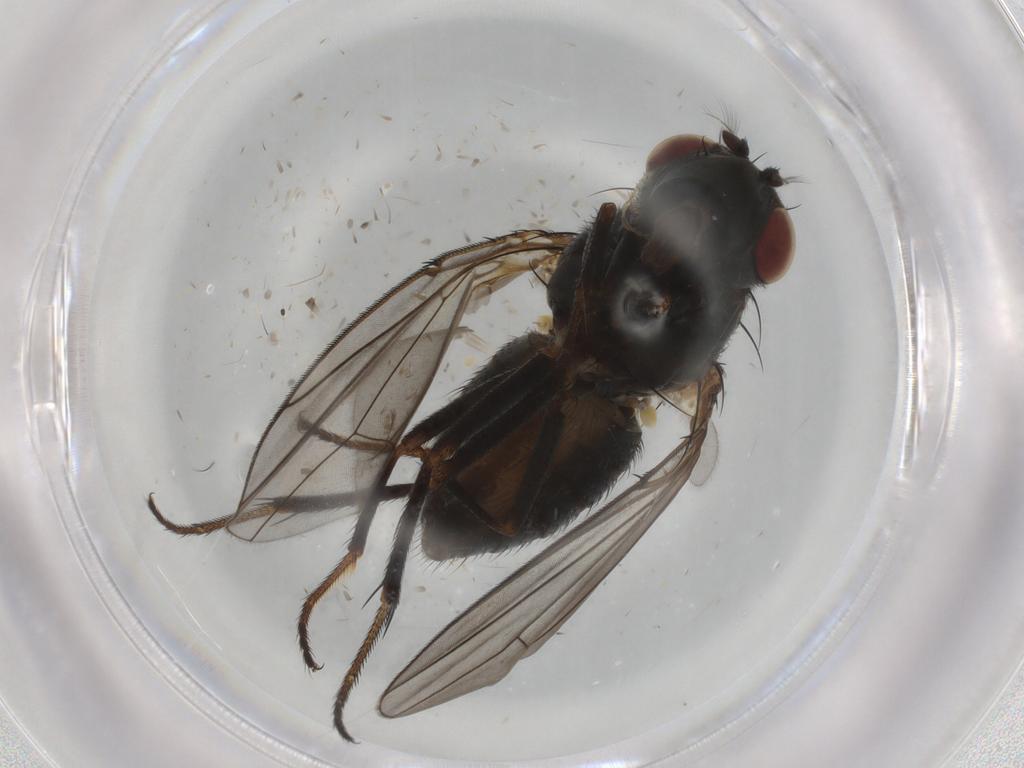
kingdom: Animalia
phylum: Arthropoda
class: Insecta
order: Diptera
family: Ephydridae
